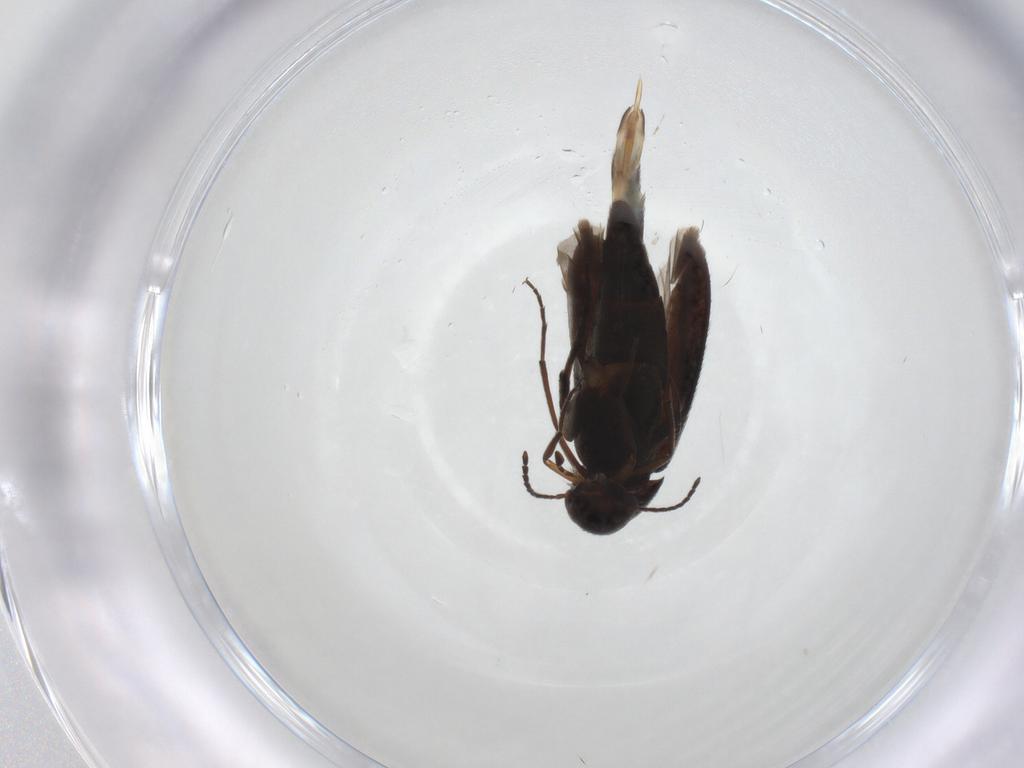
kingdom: Animalia
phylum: Arthropoda
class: Insecta
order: Coleoptera
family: Mordellidae
